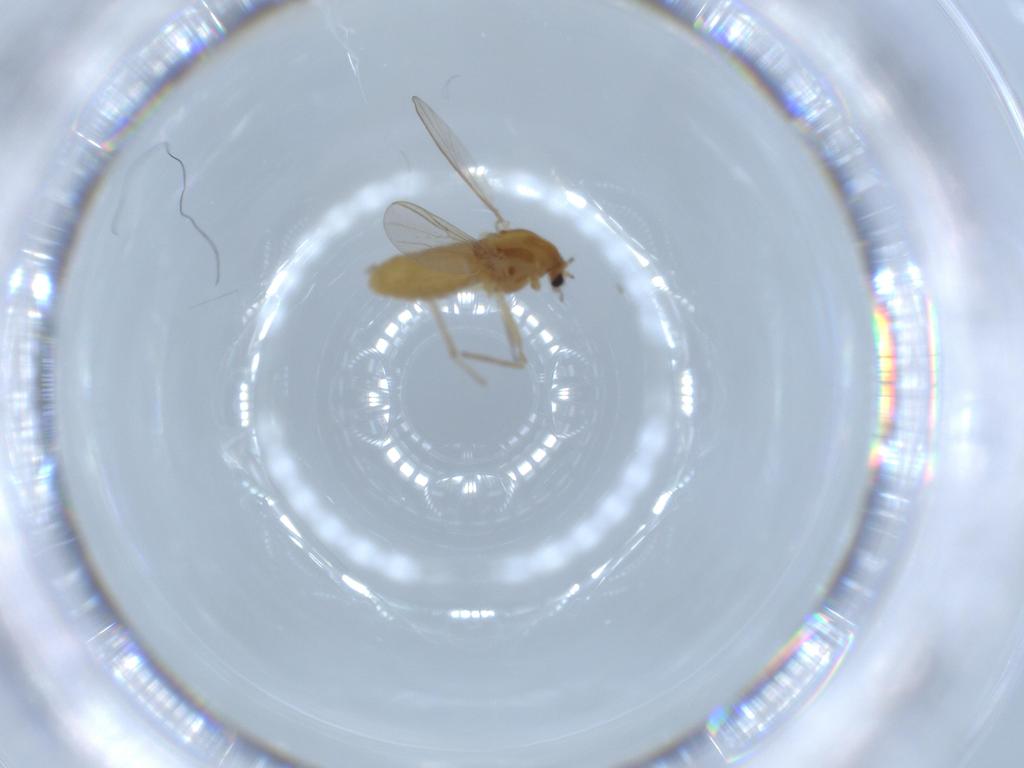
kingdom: Animalia
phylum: Arthropoda
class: Insecta
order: Diptera
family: Chironomidae
